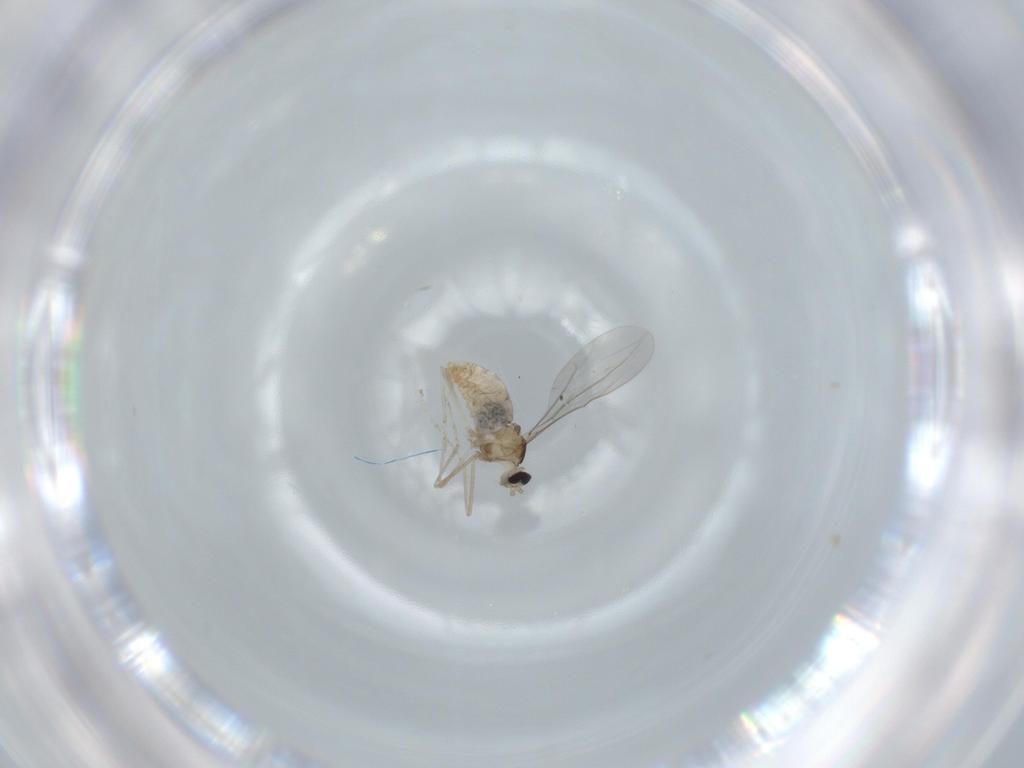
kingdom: Animalia
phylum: Arthropoda
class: Insecta
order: Diptera
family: Cecidomyiidae
